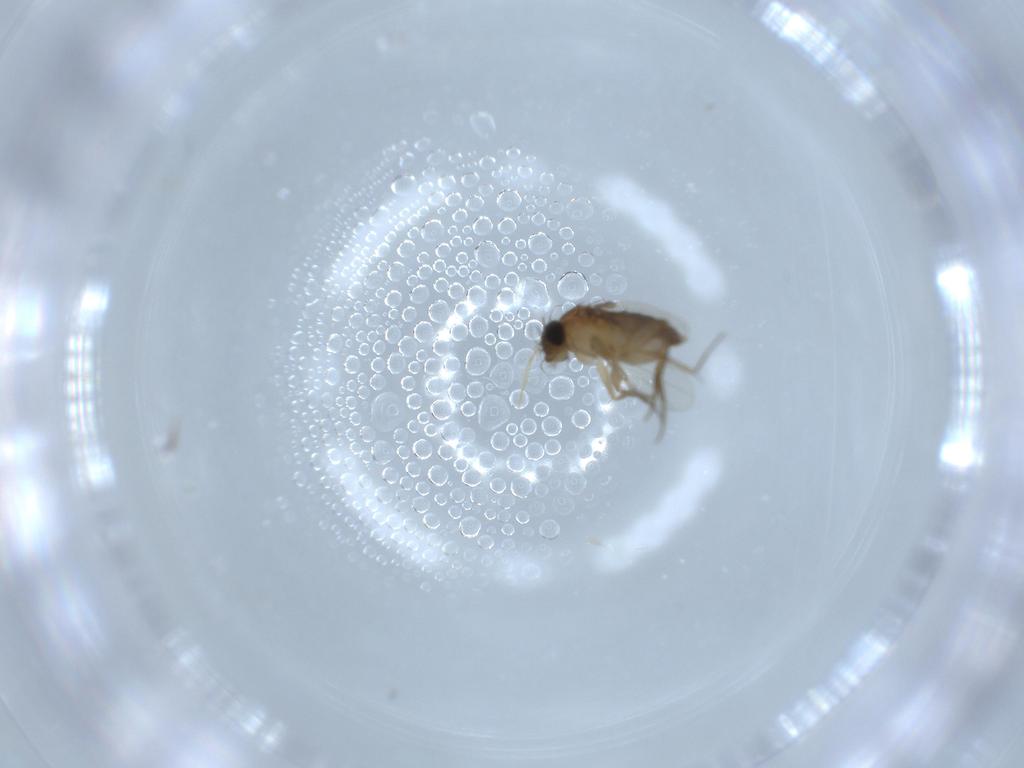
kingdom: Animalia
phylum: Arthropoda
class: Insecta
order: Diptera
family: Phoridae
